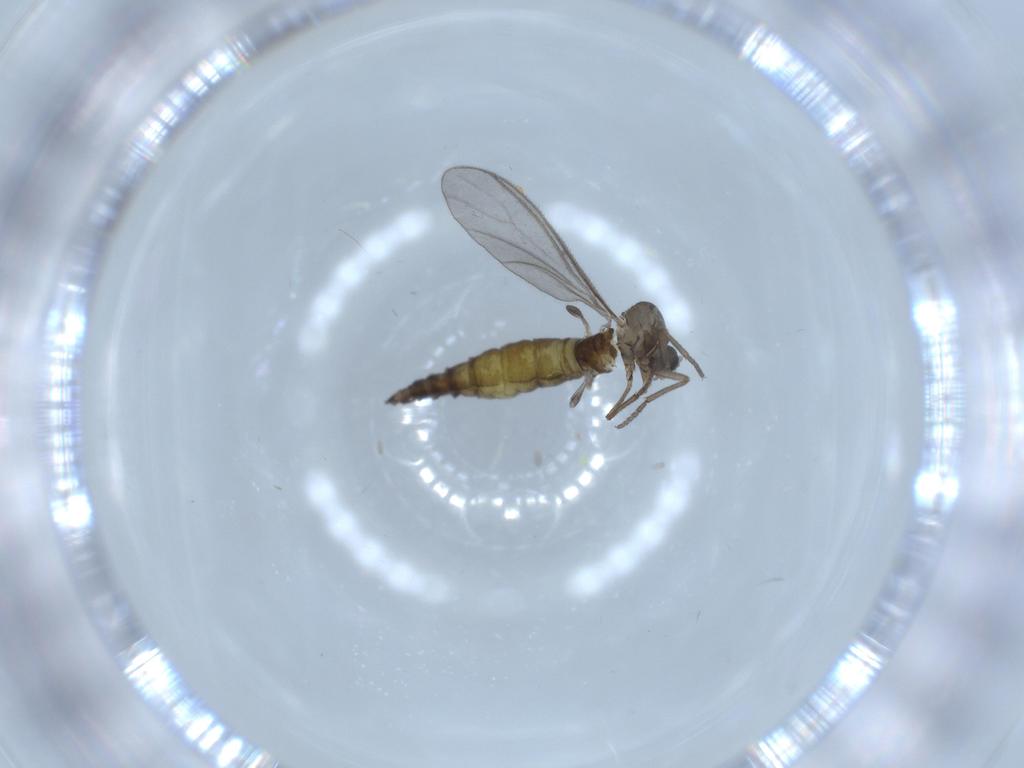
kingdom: Animalia
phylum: Arthropoda
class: Insecta
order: Diptera
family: Sciaridae
